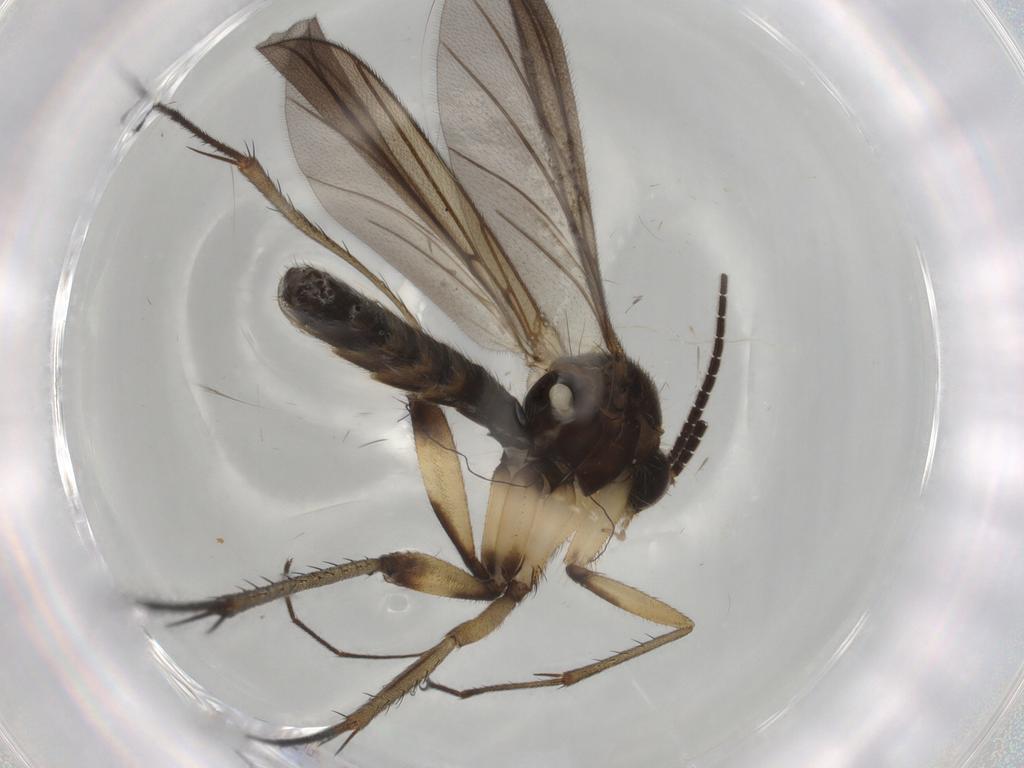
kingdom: Animalia
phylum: Arthropoda
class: Insecta
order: Diptera
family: Mycetophilidae
